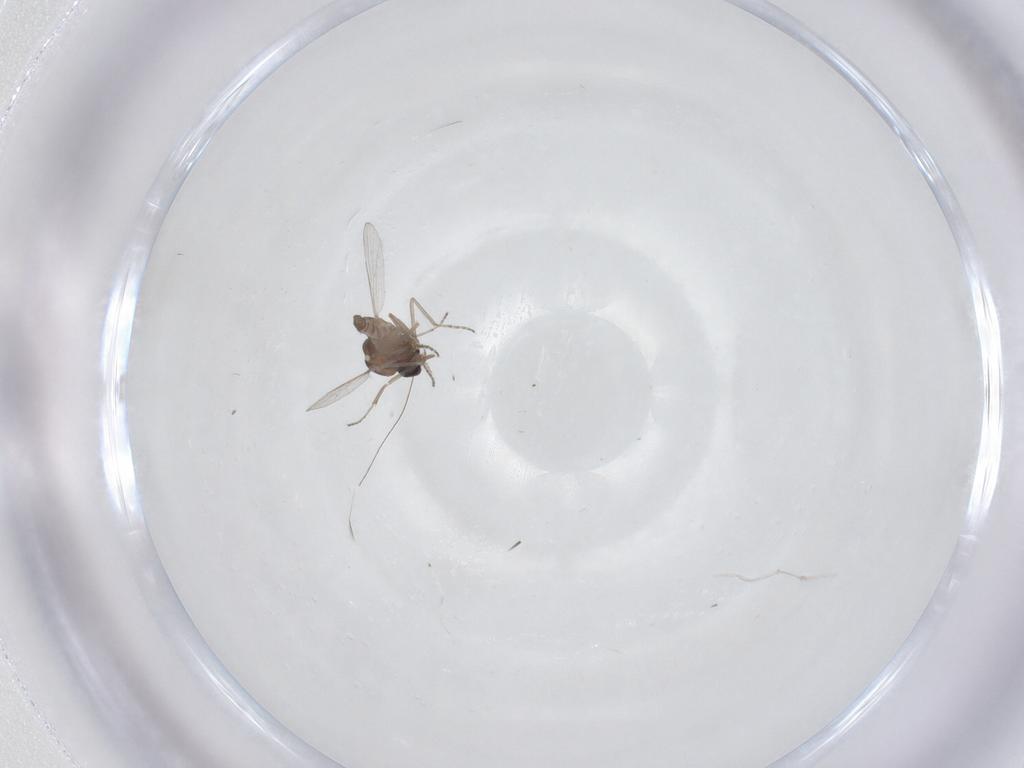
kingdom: Animalia
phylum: Arthropoda
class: Insecta
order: Diptera
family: Ceratopogonidae
